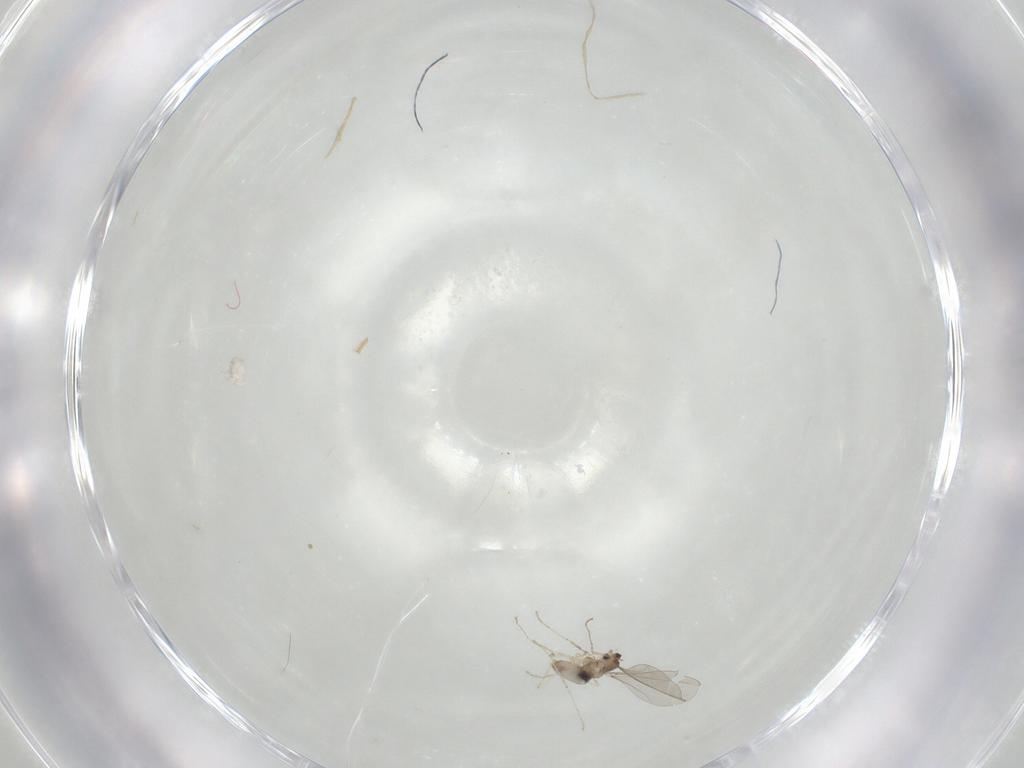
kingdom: Animalia
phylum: Arthropoda
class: Insecta
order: Diptera
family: Cecidomyiidae
